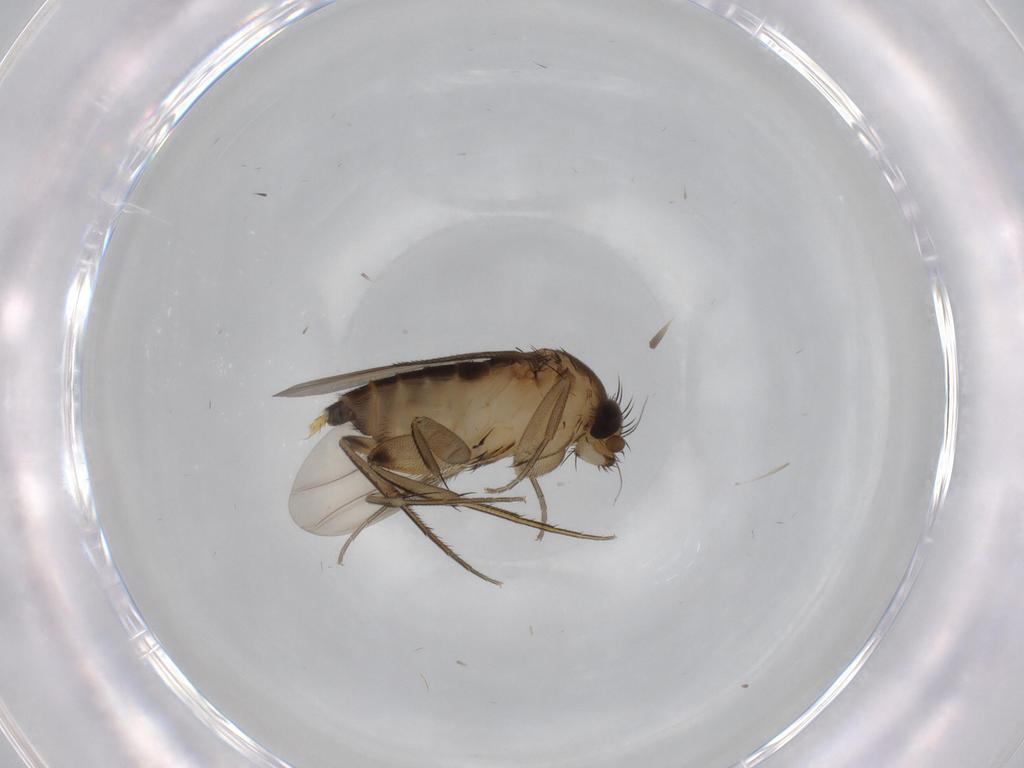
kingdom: Animalia
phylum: Arthropoda
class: Insecta
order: Diptera
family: Phoridae
